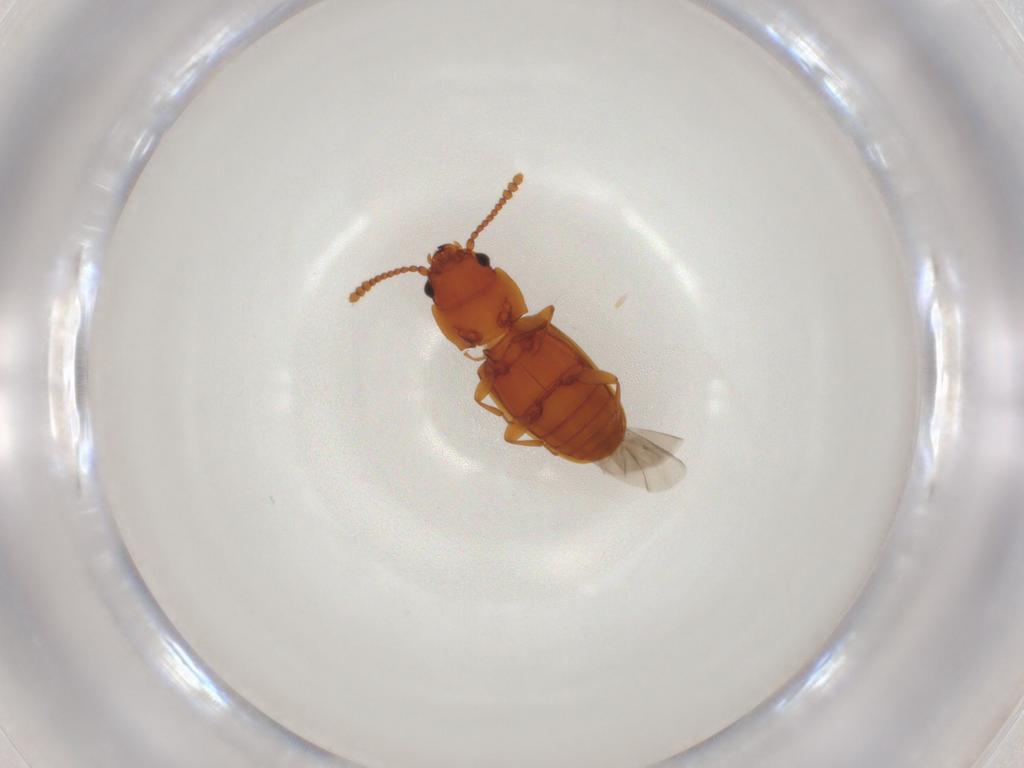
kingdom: Animalia
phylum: Arthropoda
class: Insecta
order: Coleoptera
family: Laemophloeidae
